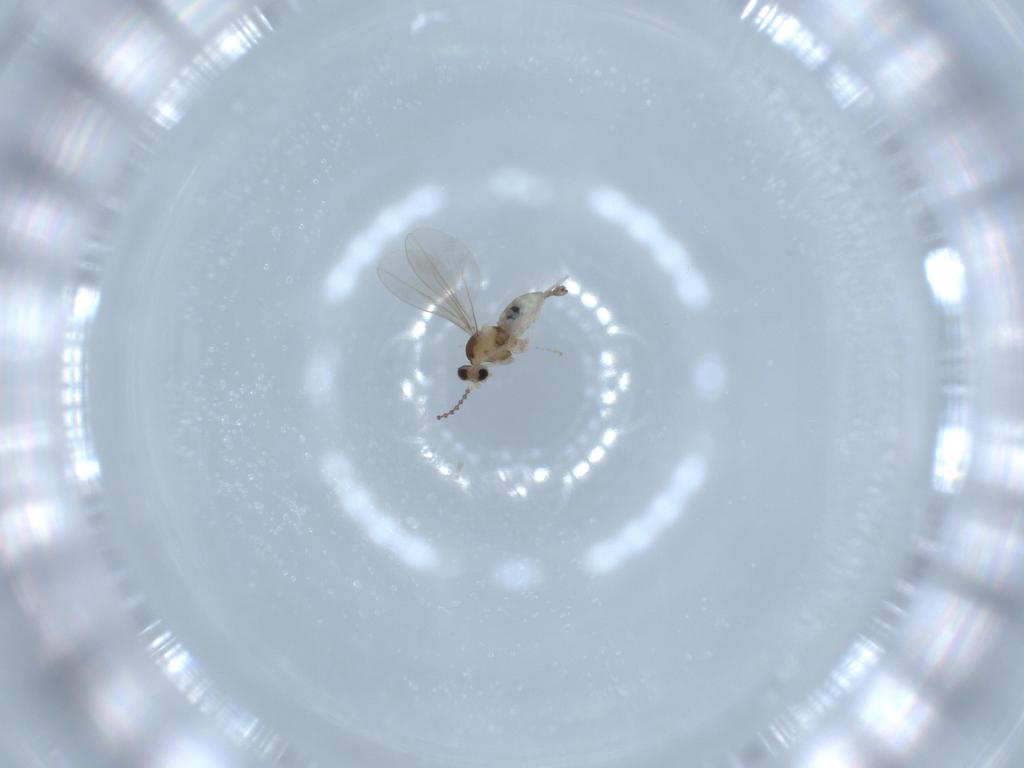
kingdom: Animalia
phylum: Arthropoda
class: Insecta
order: Diptera
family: Cecidomyiidae
